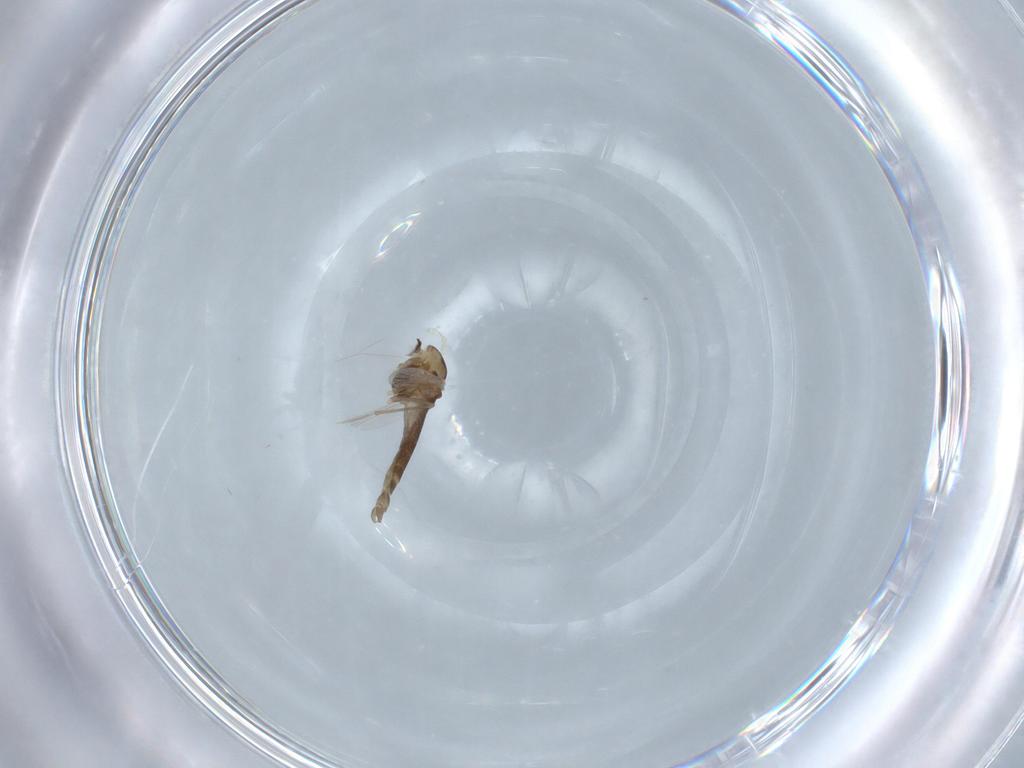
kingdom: Animalia
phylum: Arthropoda
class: Insecta
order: Diptera
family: Chironomidae
